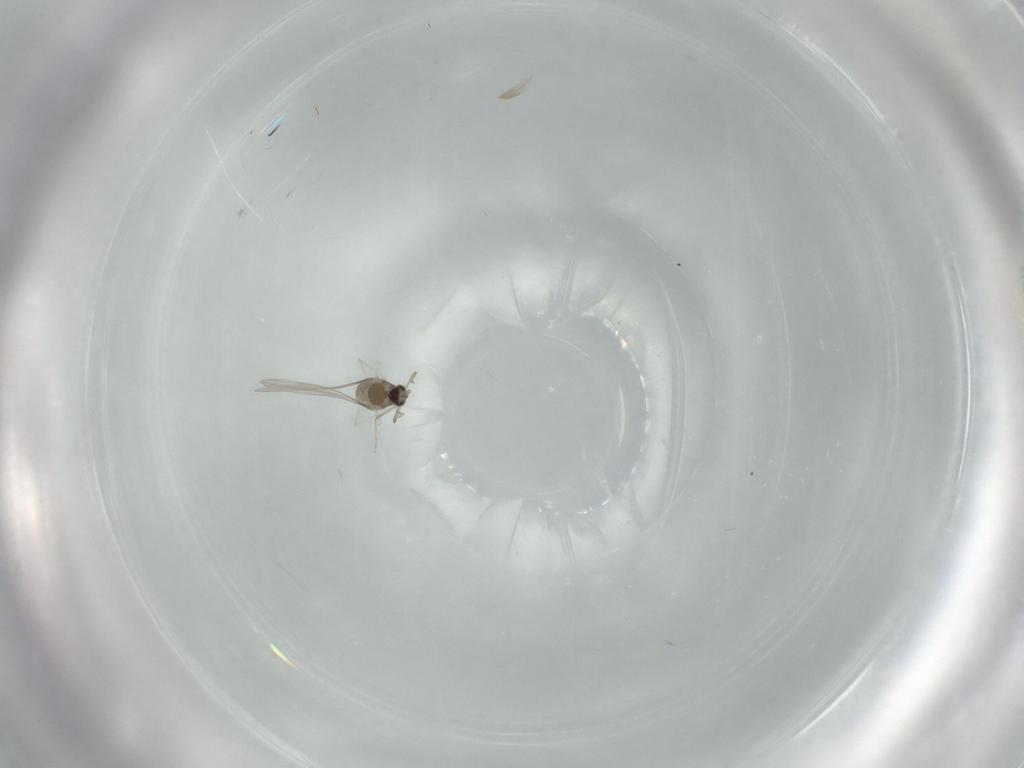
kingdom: Animalia
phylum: Arthropoda
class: Insecta
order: Diptera
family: Cecidomyiidae
